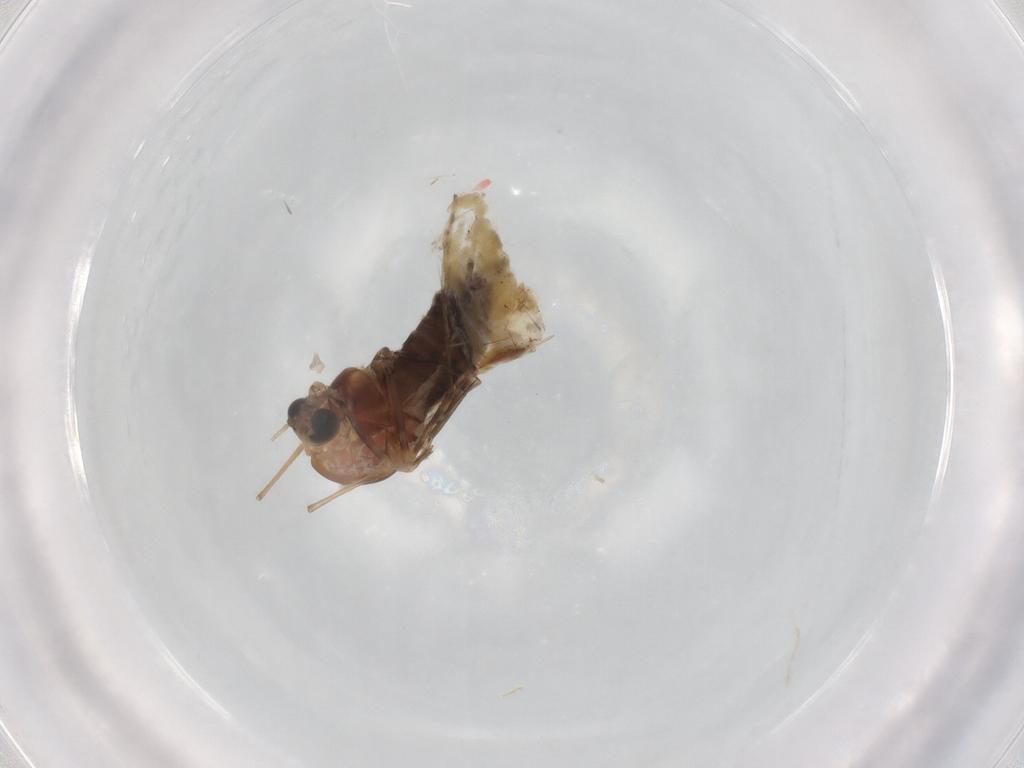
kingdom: Animalia
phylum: Arthropoda
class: Insecta
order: Diptera
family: Chironomidae
